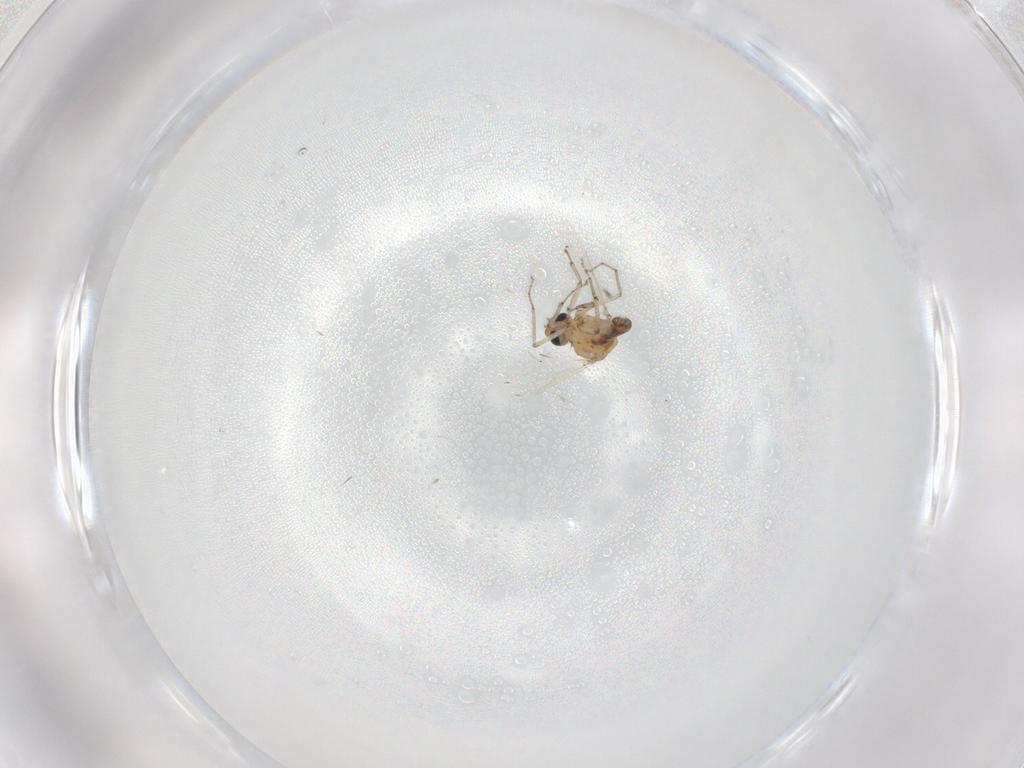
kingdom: Animalia
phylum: Arthropoda
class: Insecta
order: Diptera
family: Ceratopogonidae
